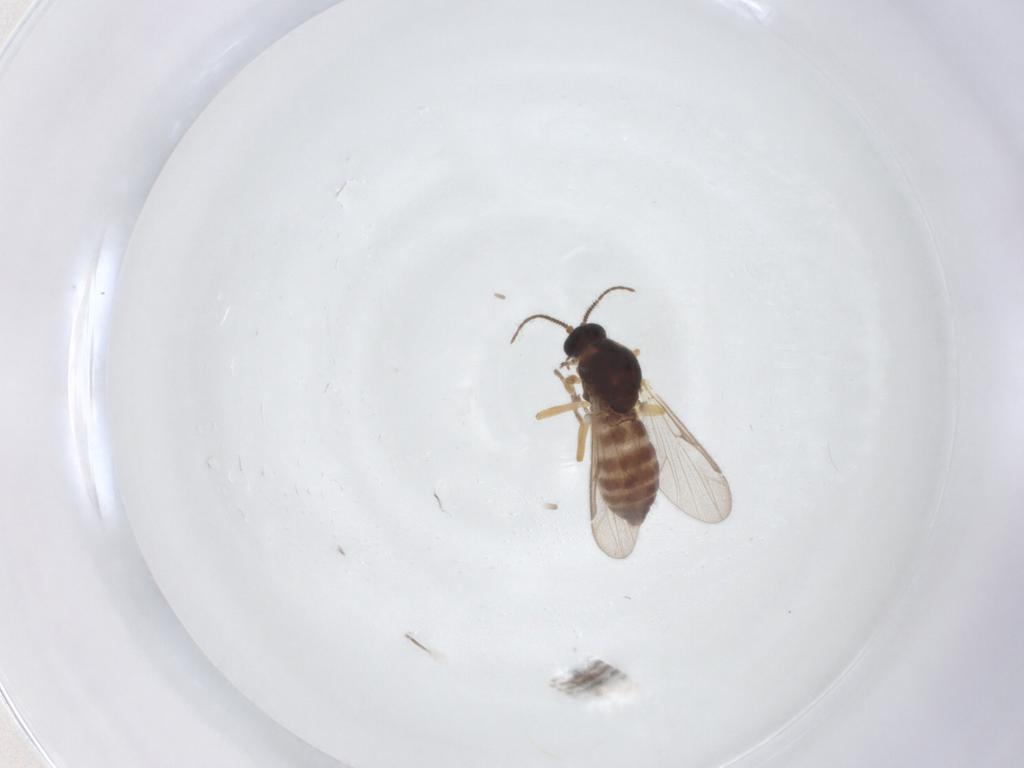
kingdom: Animalia
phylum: Arthropoda
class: Insecta
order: Diptera
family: Ceratopogonidae
